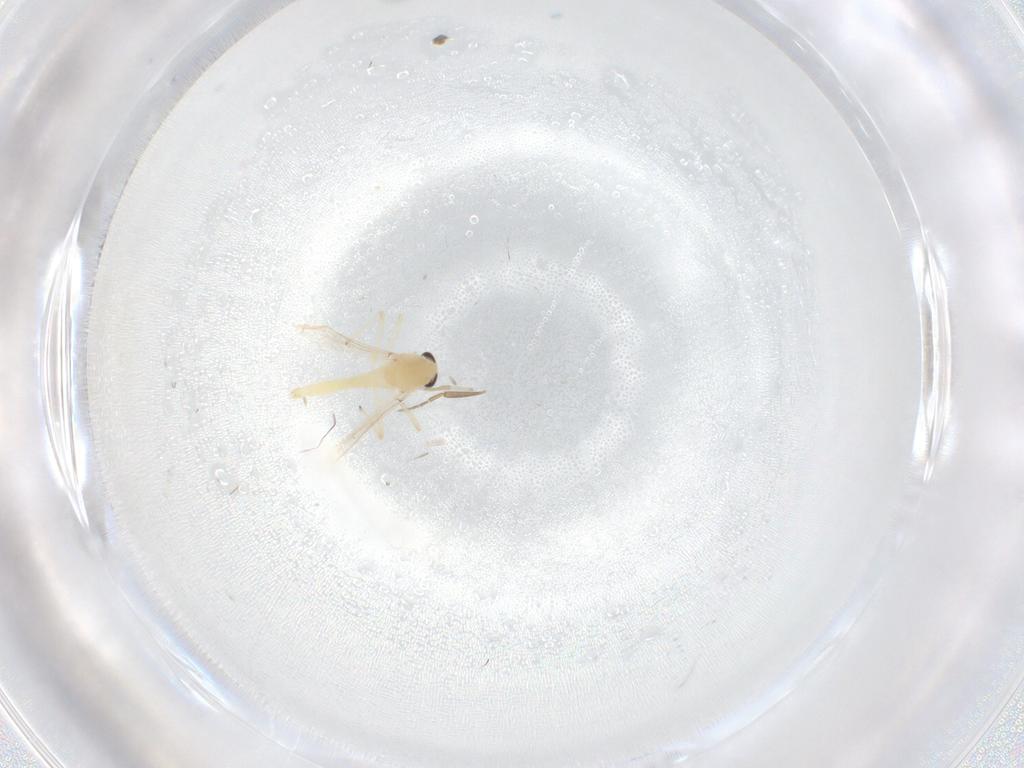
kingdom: Animalia
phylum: Arthropoda
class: Insecta
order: Diptera
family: Chironomidae
